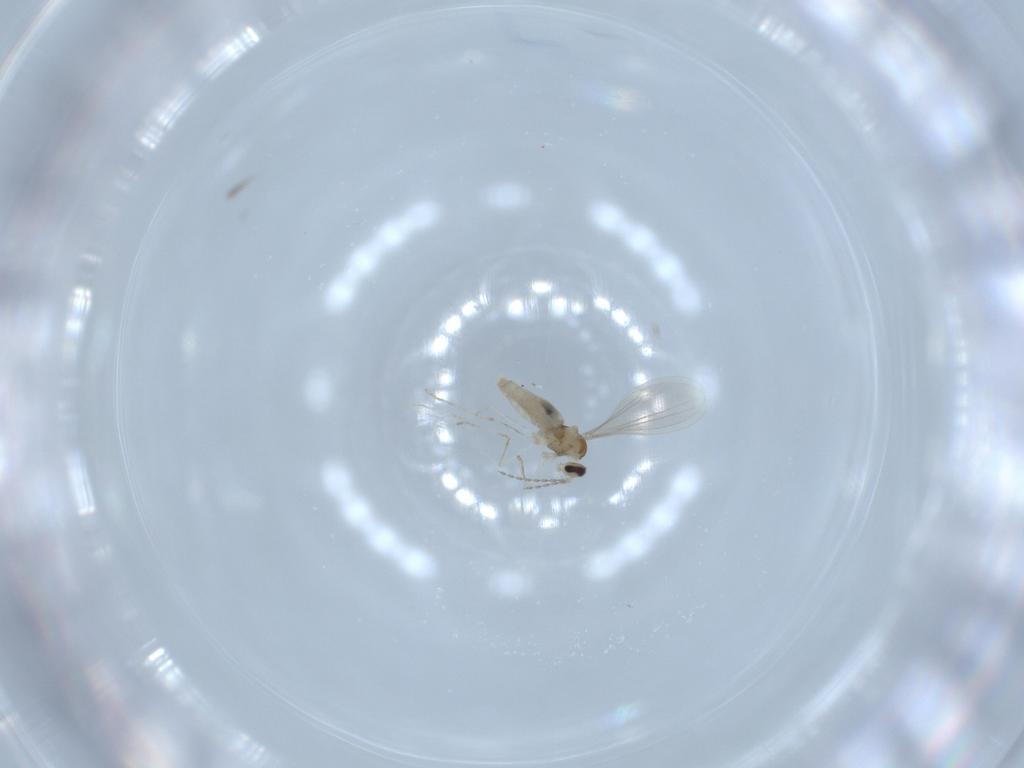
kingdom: Animalia
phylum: Arthropoda
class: Insecta
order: Diptera
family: Cecidomyiidae
